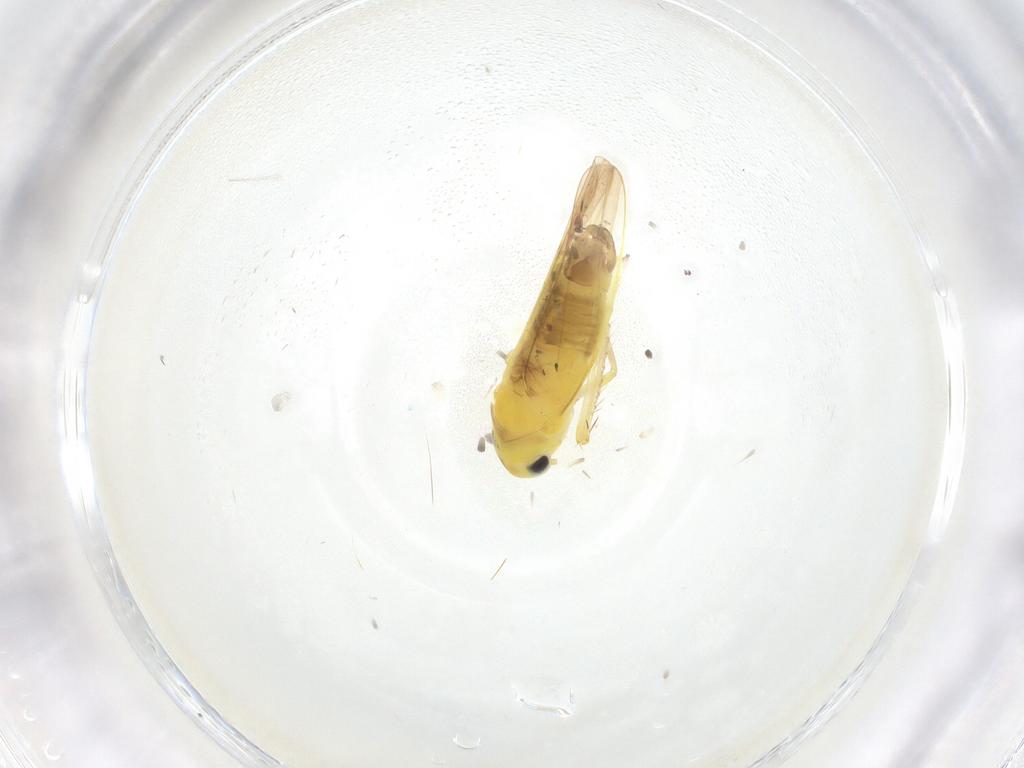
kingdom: Animalia
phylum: Arthropoda
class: Insecta
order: Hemiptera
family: Cicadellidae
